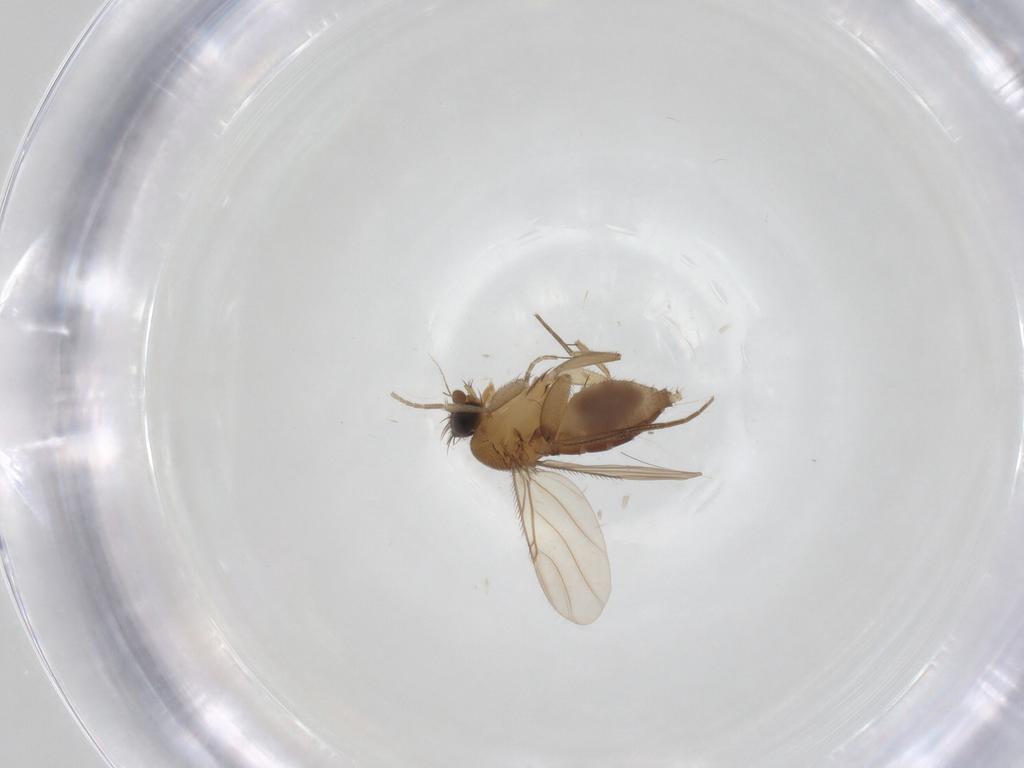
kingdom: Animalia
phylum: Arthropoda
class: Insecta
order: Diptera
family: Phoridae
